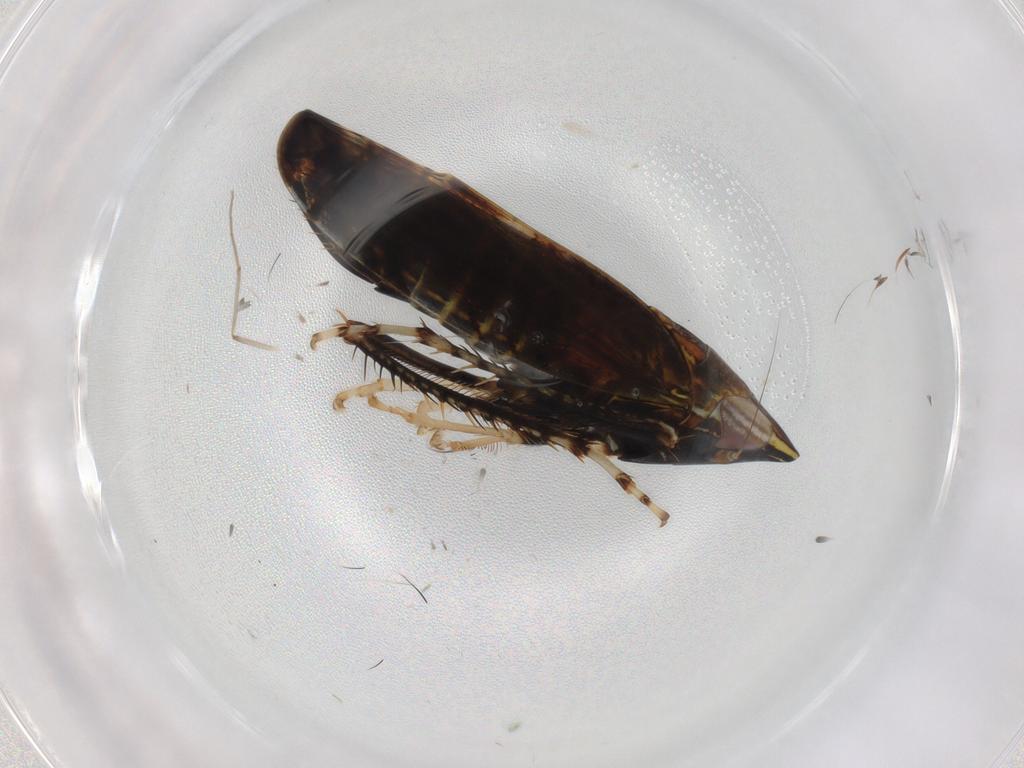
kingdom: Animalia
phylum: Arthropoda
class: Insecta
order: Hemiptera
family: Cicadellidae
